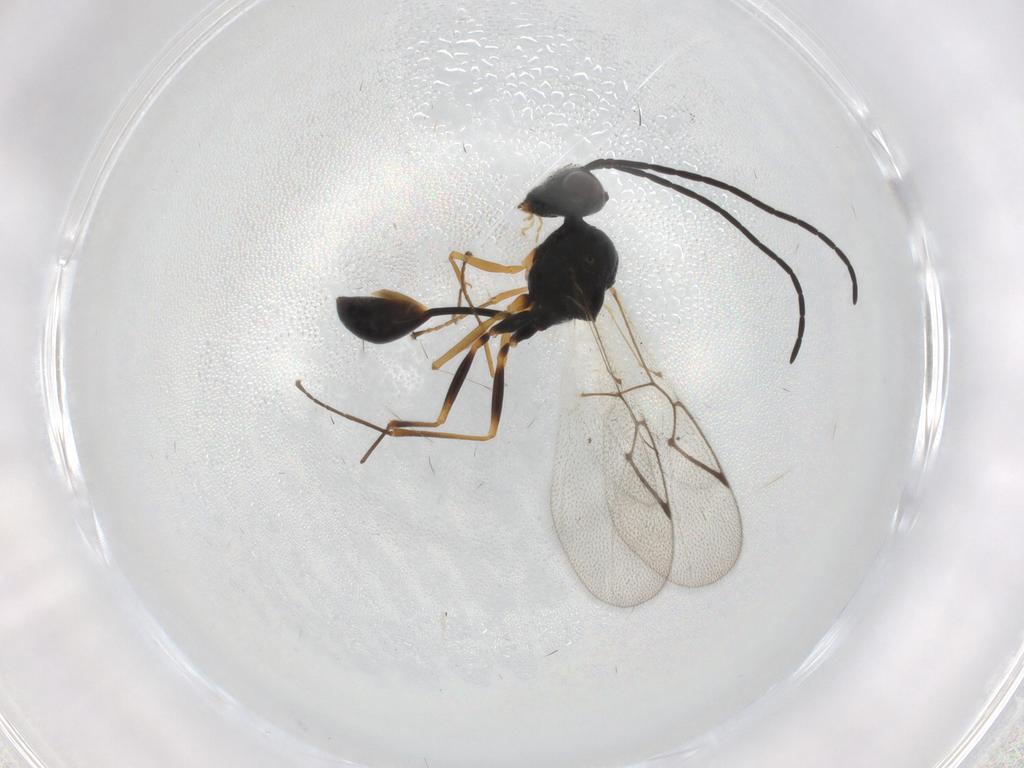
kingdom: Animalia
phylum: Arthropoda
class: Insecta
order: Hymenoptera
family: Figitidae
